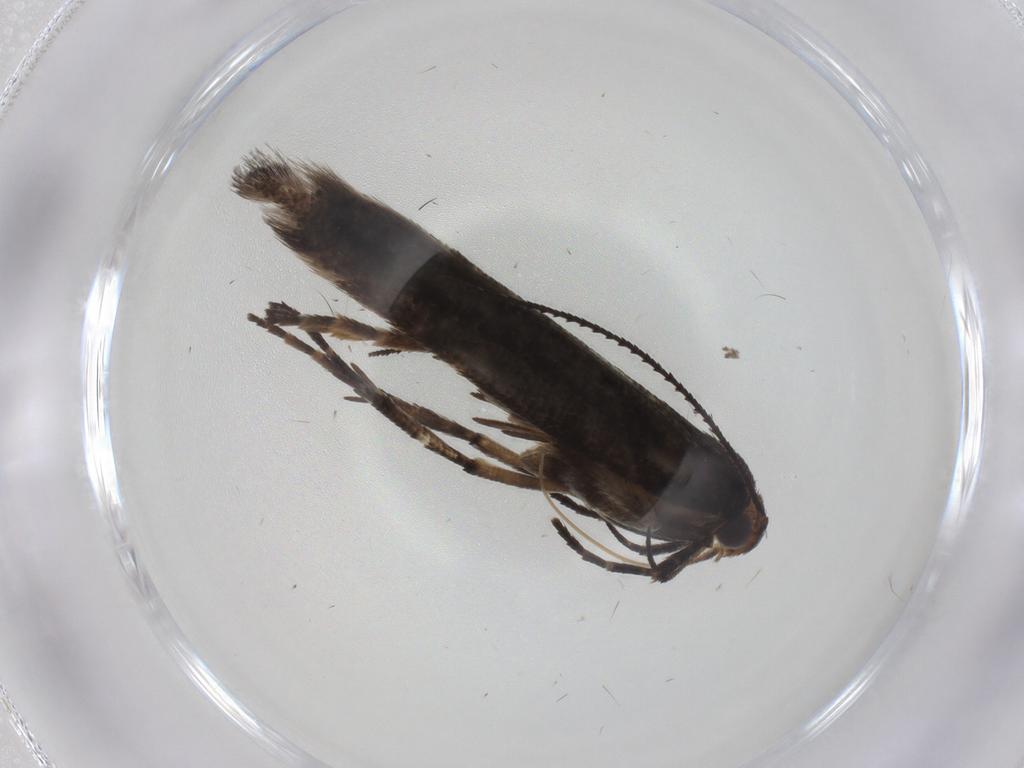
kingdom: Animalia
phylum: Arthropoda
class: Insecta
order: Lepidoptera
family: Gelechiidae
